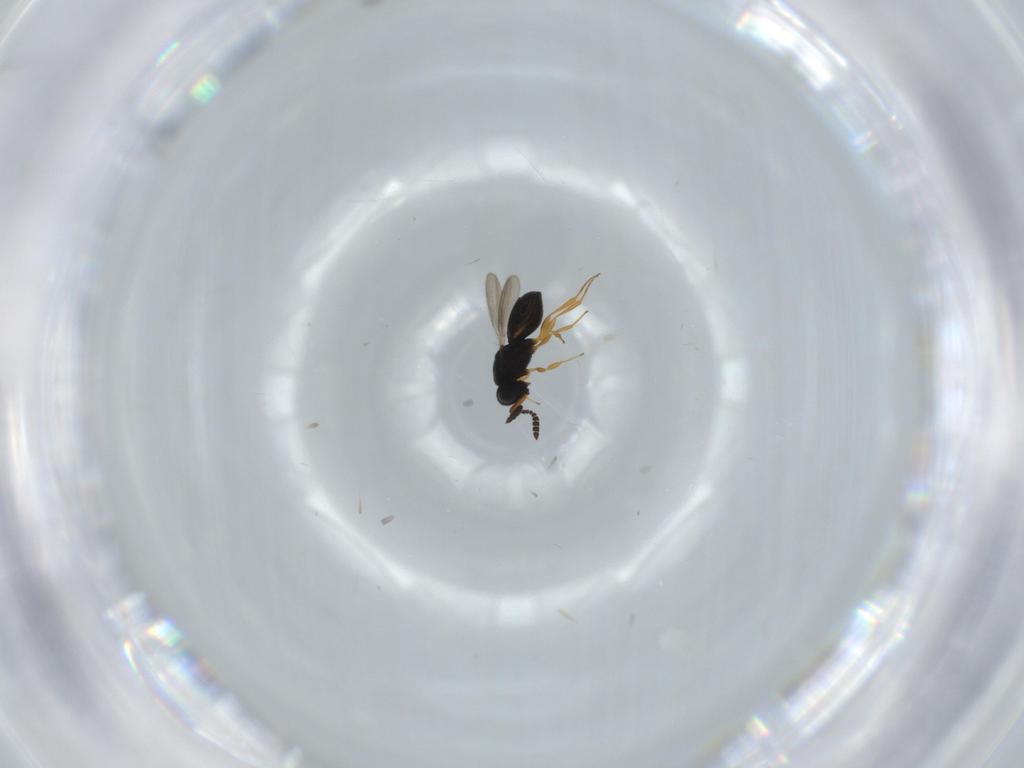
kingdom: Animalia
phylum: Arthropoda
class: Insecta
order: Hymenoptera
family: Scelionidae
